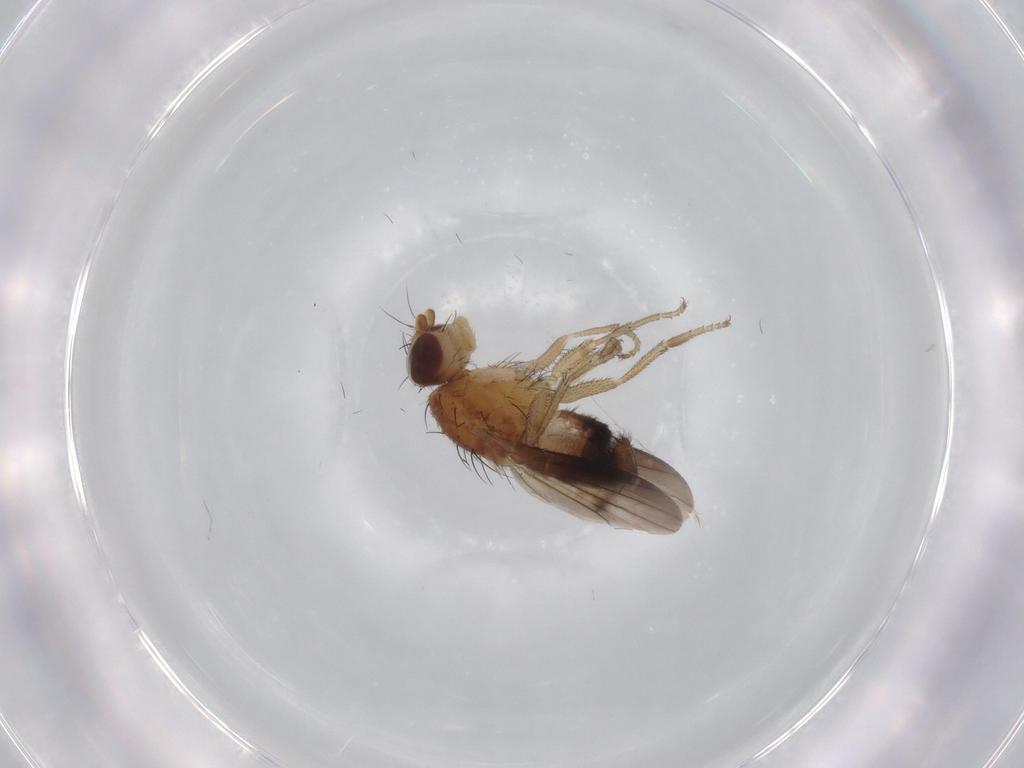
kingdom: Animalia
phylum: Arthropoda
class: Insecta
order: Diptera
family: Heleomyzidae
